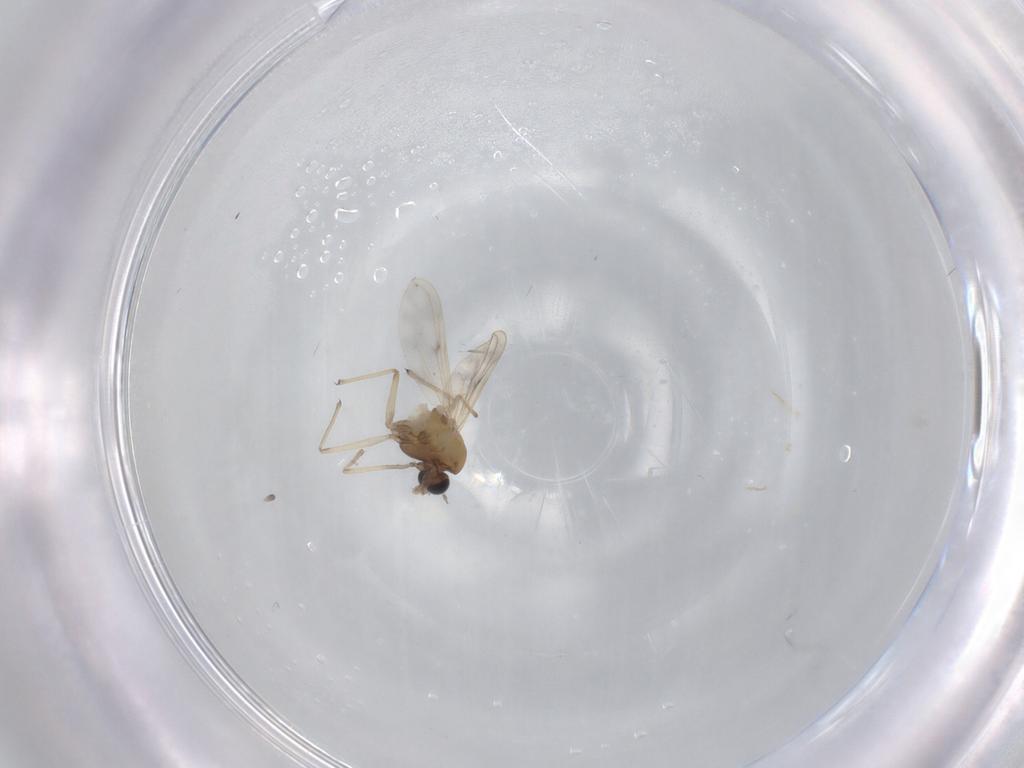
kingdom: Animalia
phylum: Arthropoda
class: Insecta
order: Diptera
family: Chironomidae
